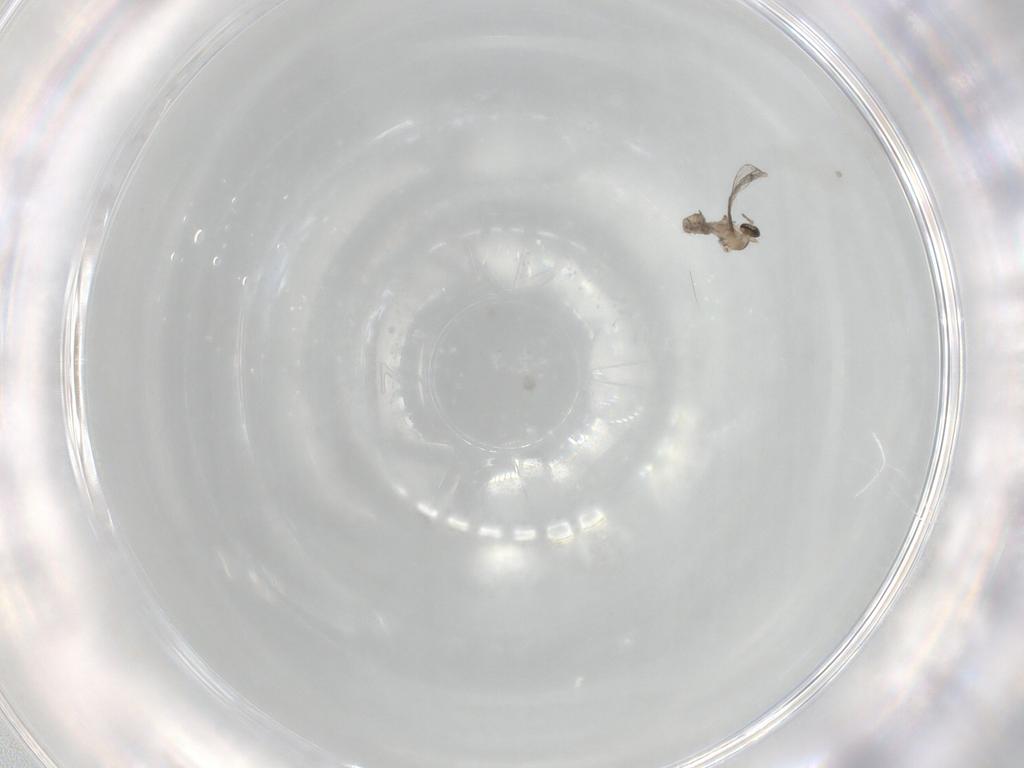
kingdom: Animalia
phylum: Arthropoda
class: Insecta
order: Diptera
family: Cecidomyiidae
